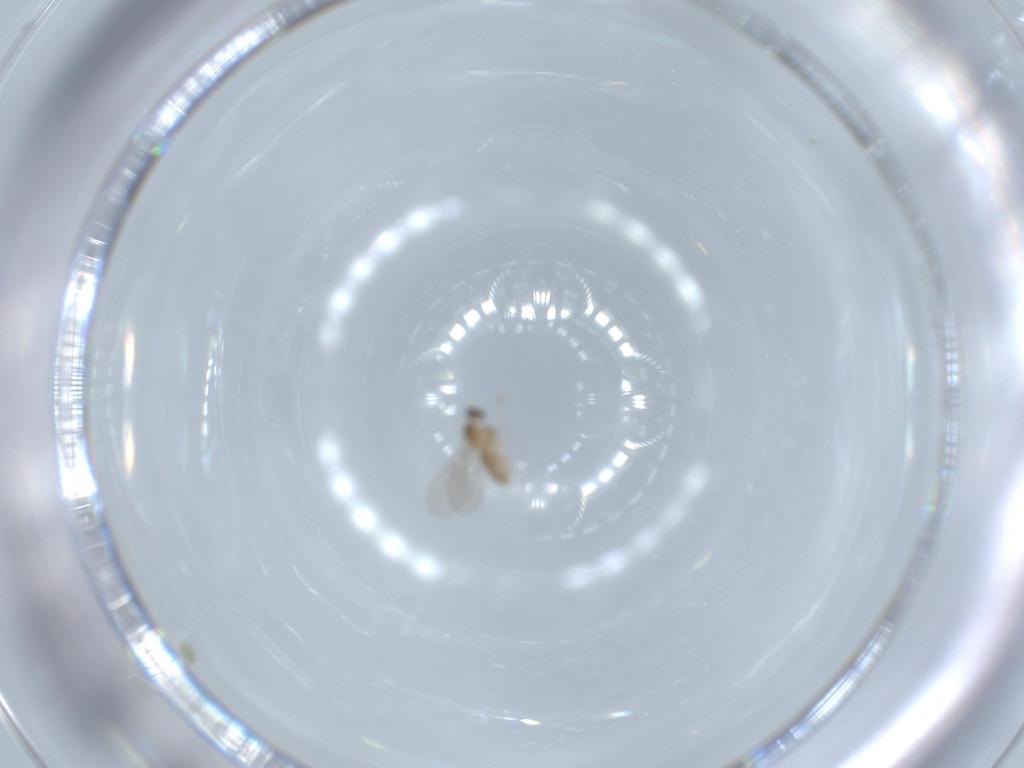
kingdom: Animalia
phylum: Arthropoda
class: Insecta
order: Diptera
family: Cecidomyiidae
